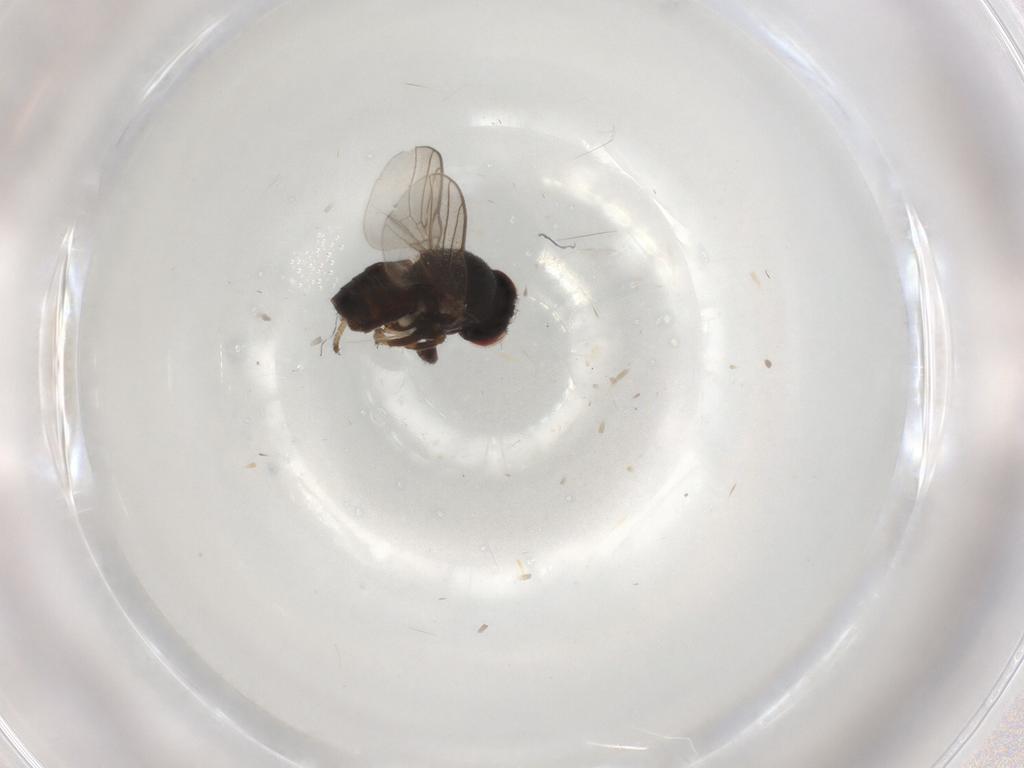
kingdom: Animalia
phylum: Arthropoda
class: Insecta
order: Diptera
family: Chloropidae
